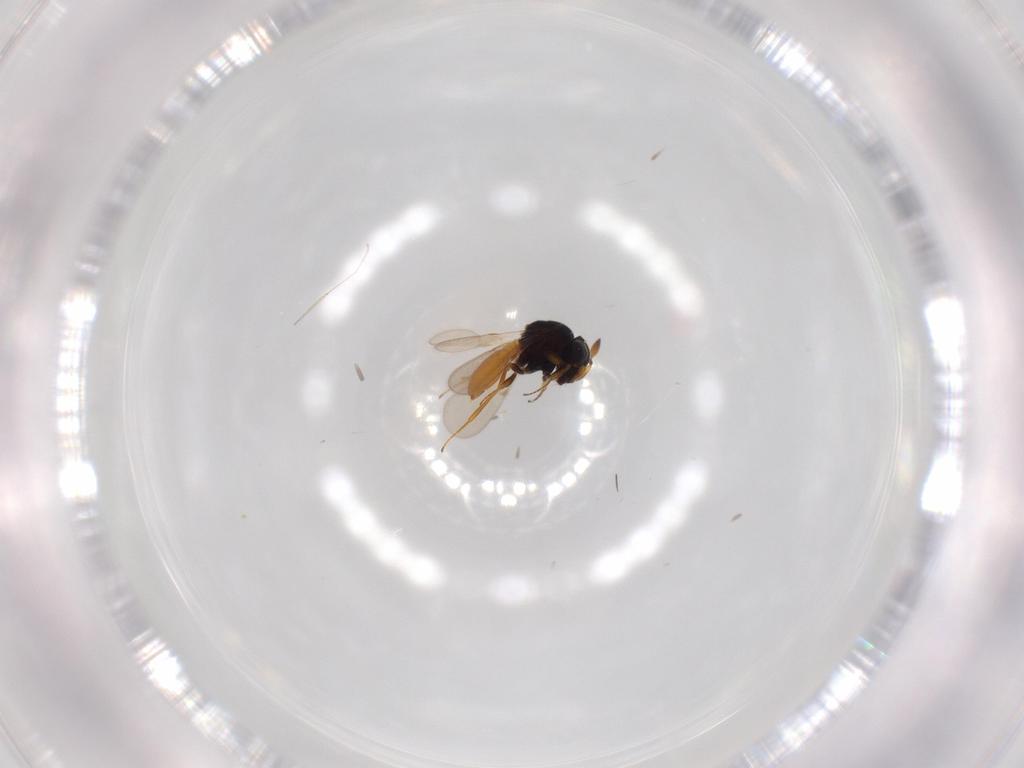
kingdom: Animalia
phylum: Arthropoda
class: Insecta
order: Hymenoptera
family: Scelionidae
